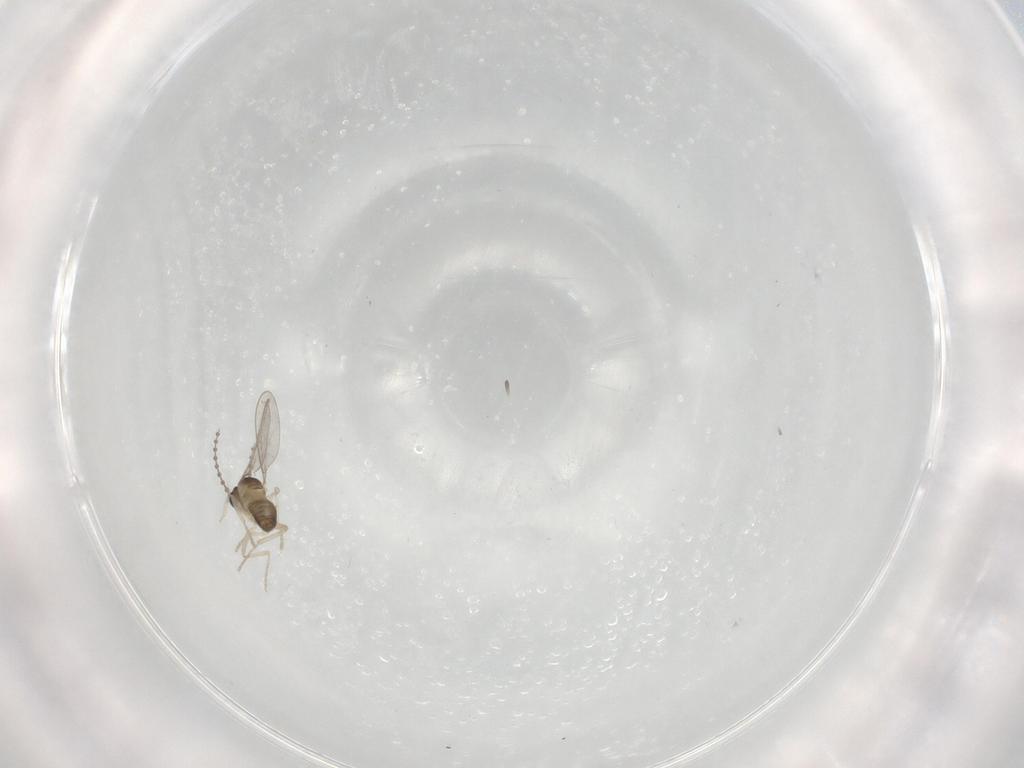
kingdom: Animalia
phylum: Arthropoda
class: Insecta
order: Diptera
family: Cecidomyiidae
